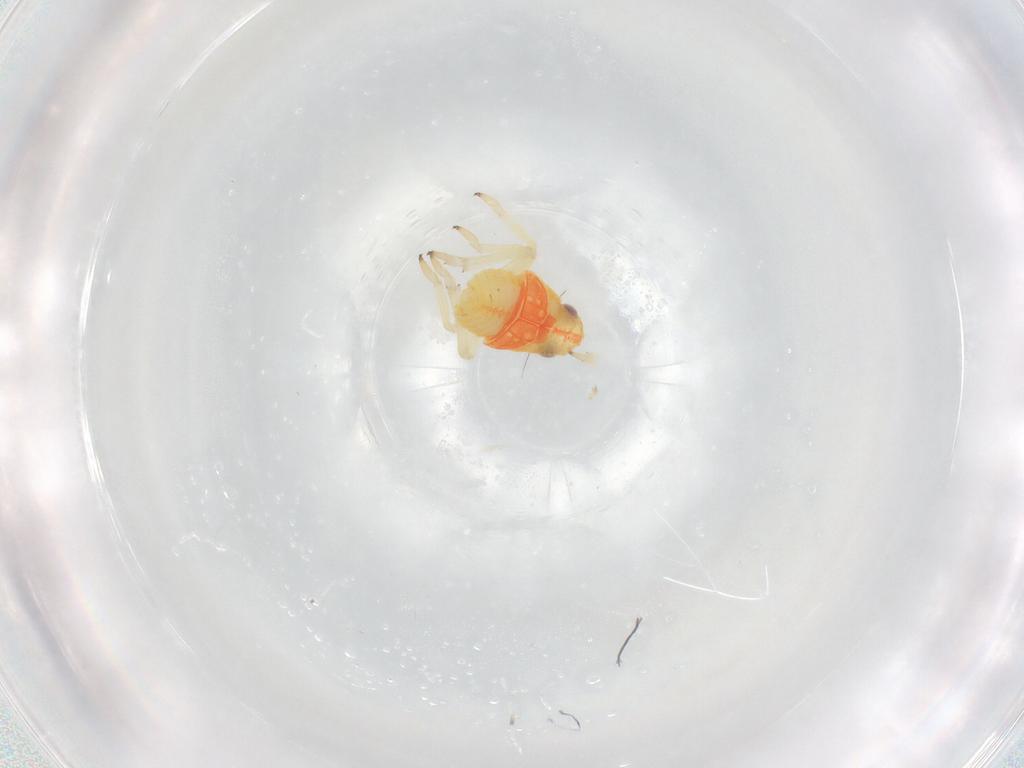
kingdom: Animalia
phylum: Arthropoda
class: Insecta
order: Hemiptera
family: Caliscelidae
